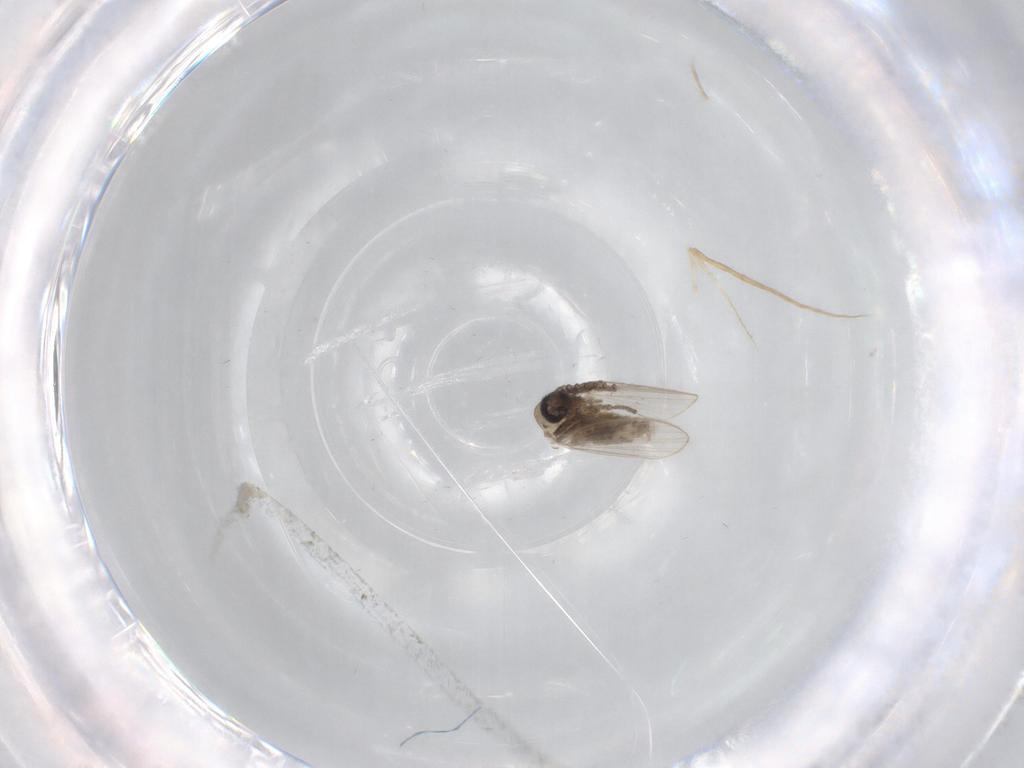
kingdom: Animalia
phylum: Arthropoda
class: Insecta
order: Diptera
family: Psychodidae
